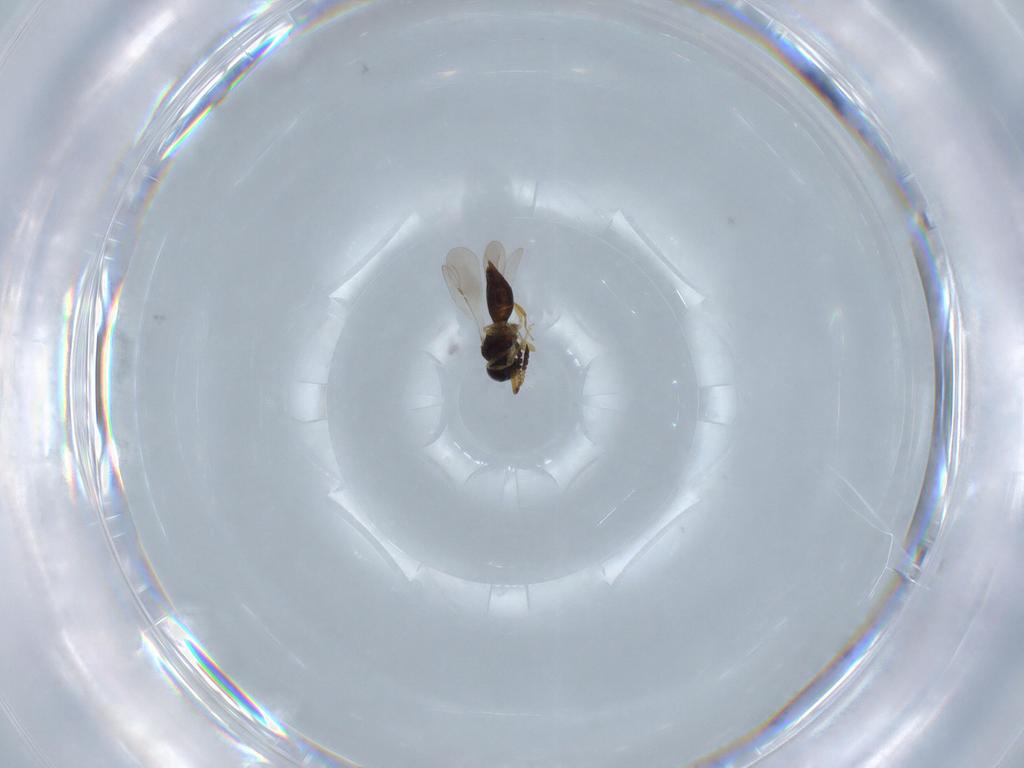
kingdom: Animalia
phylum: Arthropoda
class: Insecta
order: Hymenoptera
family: Ceraphronidae
